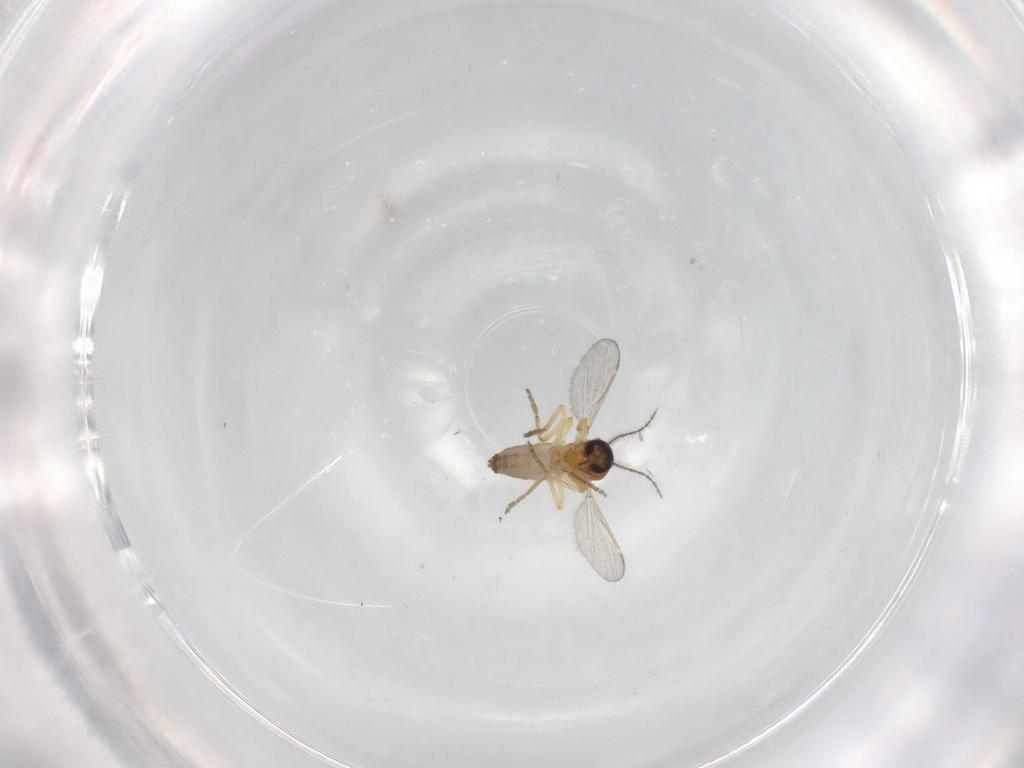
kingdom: Animalia
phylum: Arthropoda
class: Insecta
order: Diptera
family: Ceratopogonidae
